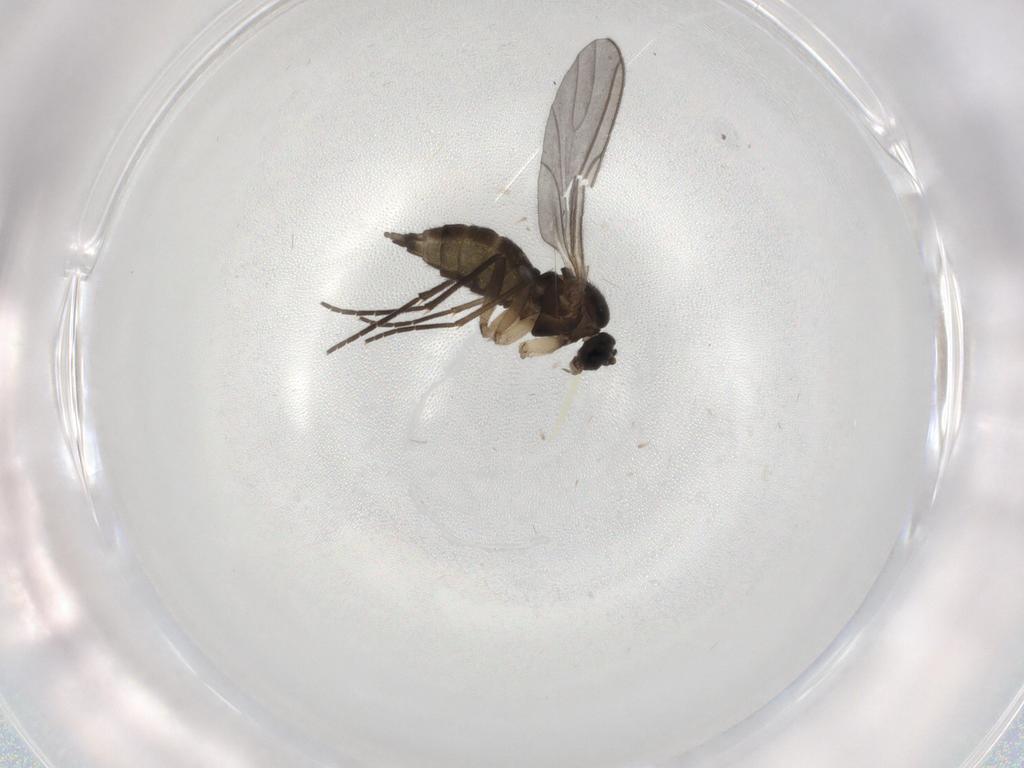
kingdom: Animalia
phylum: Arthropoda
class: Insecta
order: Diptera
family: Sciaridae
